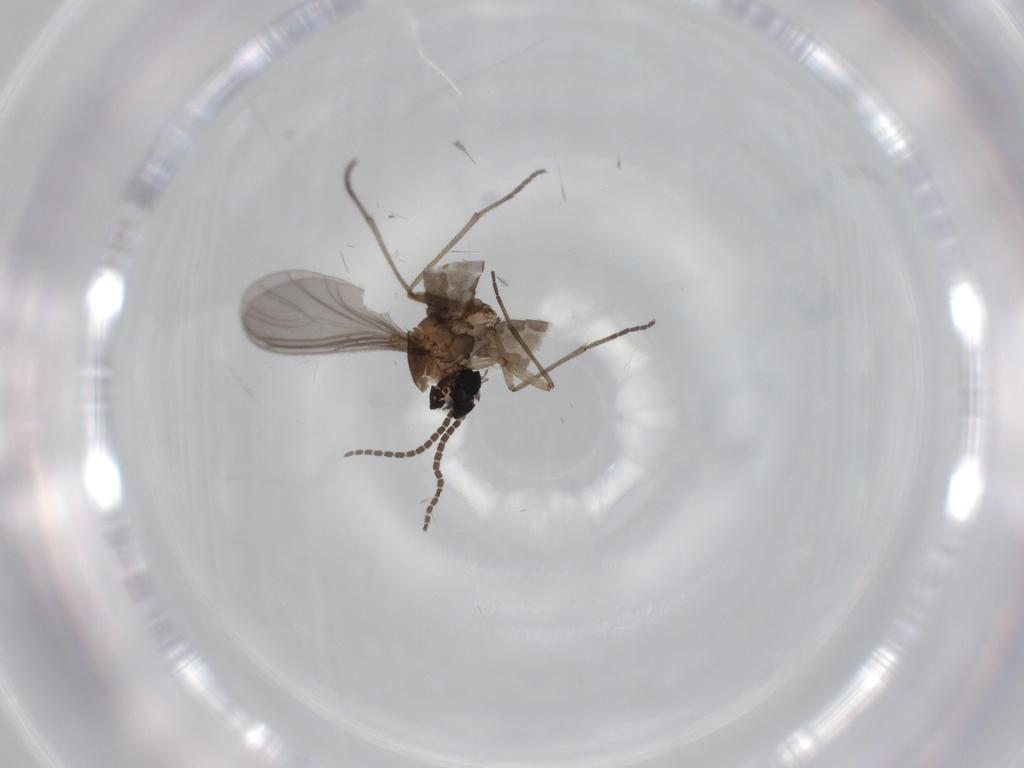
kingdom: Animalia
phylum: Arthropoda
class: Insecta
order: Diptera
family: Sciaridae
